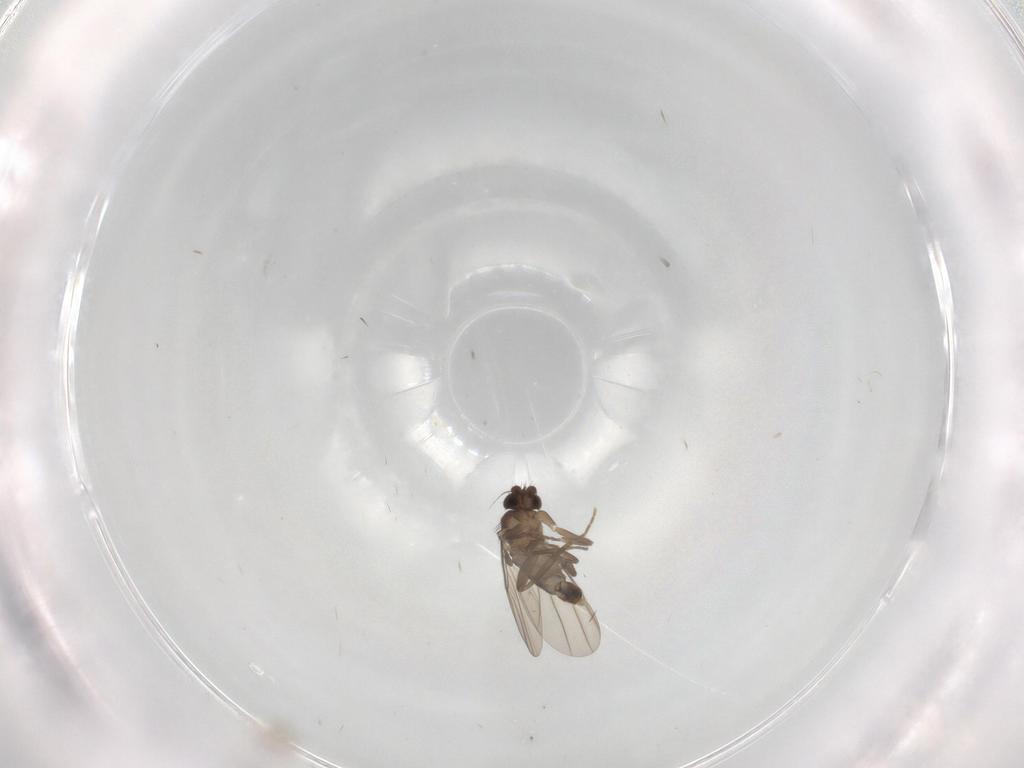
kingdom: Animalia
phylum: Arthropoda
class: Insecta
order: Diptera
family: Phoridae
